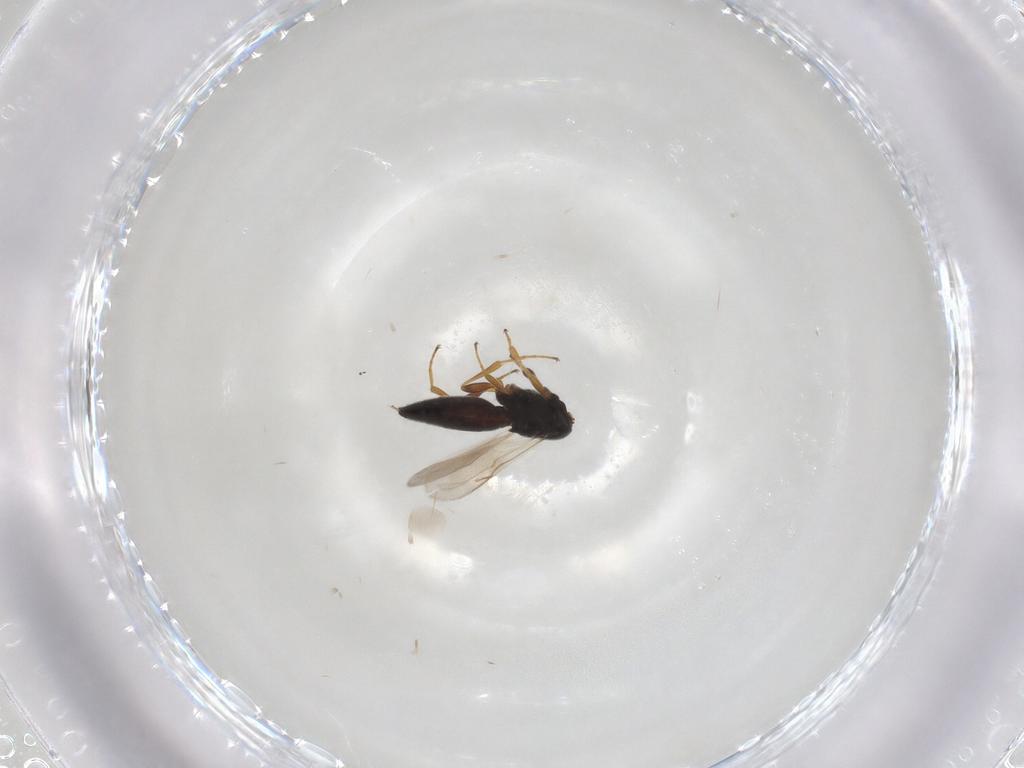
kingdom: Animalia
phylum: Arthropoda
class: Insecta
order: Hymenoptera
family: Scelionidae
